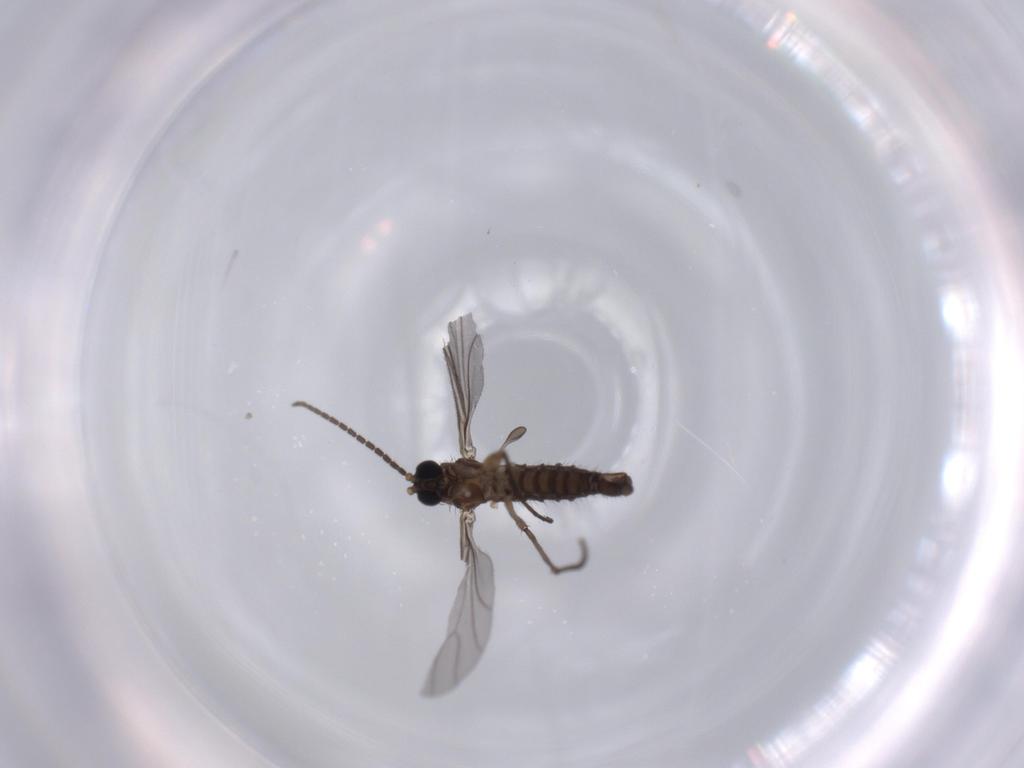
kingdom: Animalia
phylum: Arthropoda
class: Insecta
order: Diptera
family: Sciaridae
